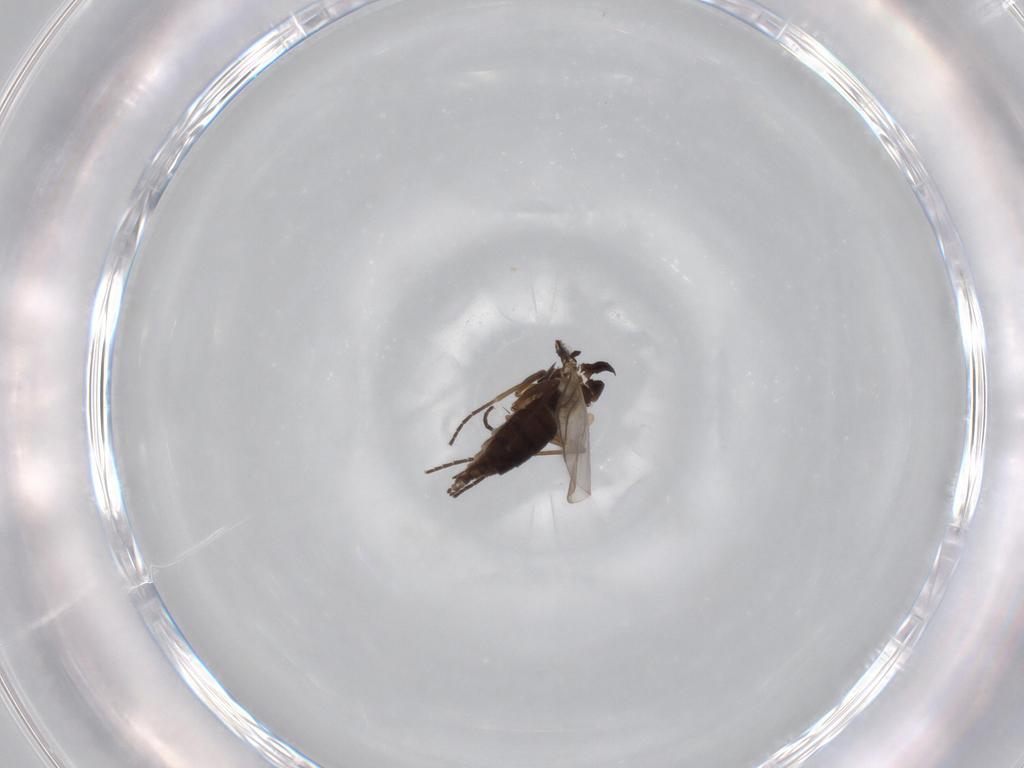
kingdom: Animalia
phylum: Arthropoda
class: Insecta
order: Diptera
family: Sciaridae
